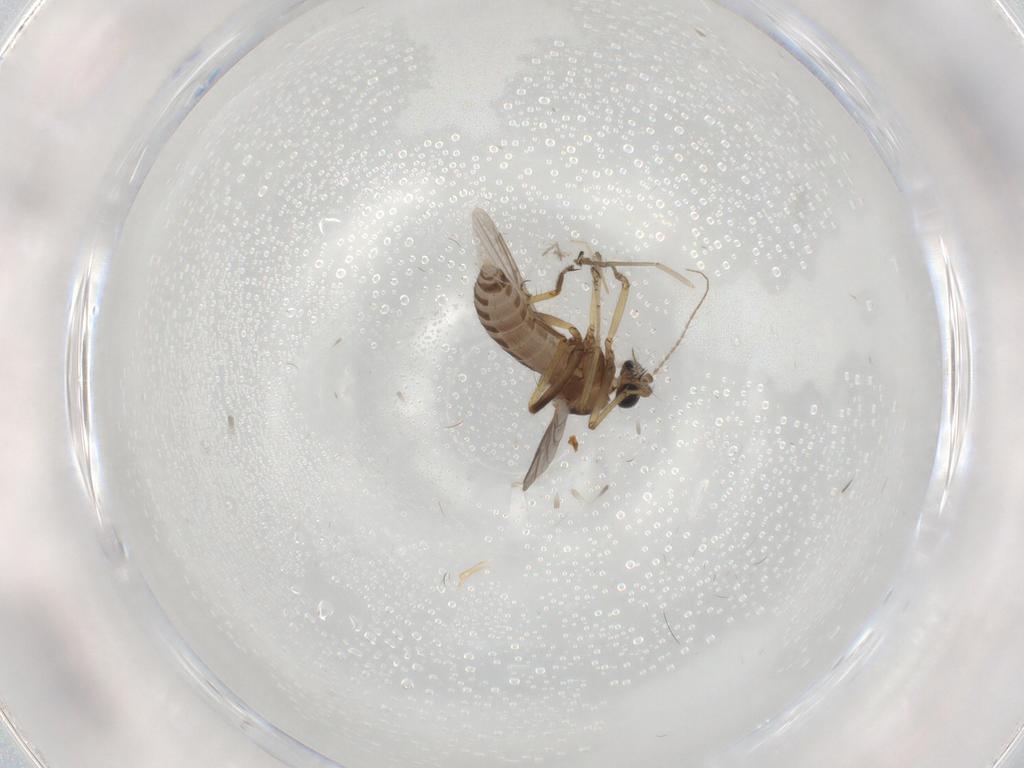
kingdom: Animalia
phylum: Arthropoda
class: Insecta
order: Diptera
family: Ceratopogonidae
